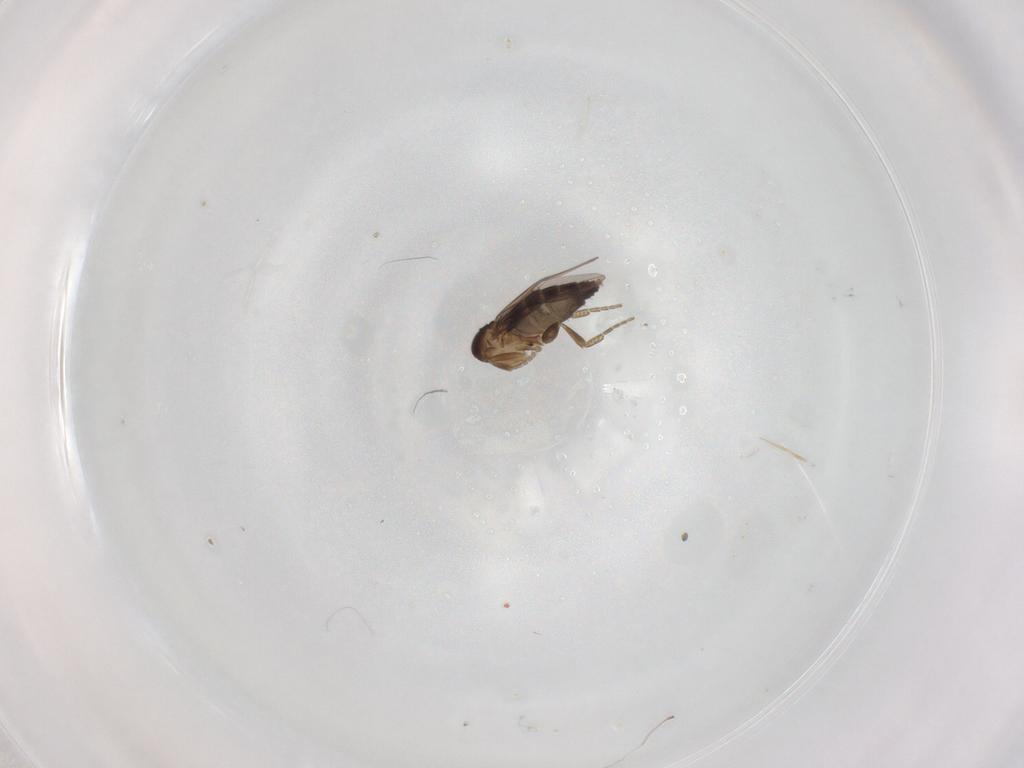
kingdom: Animalia
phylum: Arthropoda
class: Insecta
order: Diptera
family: Phoridae
